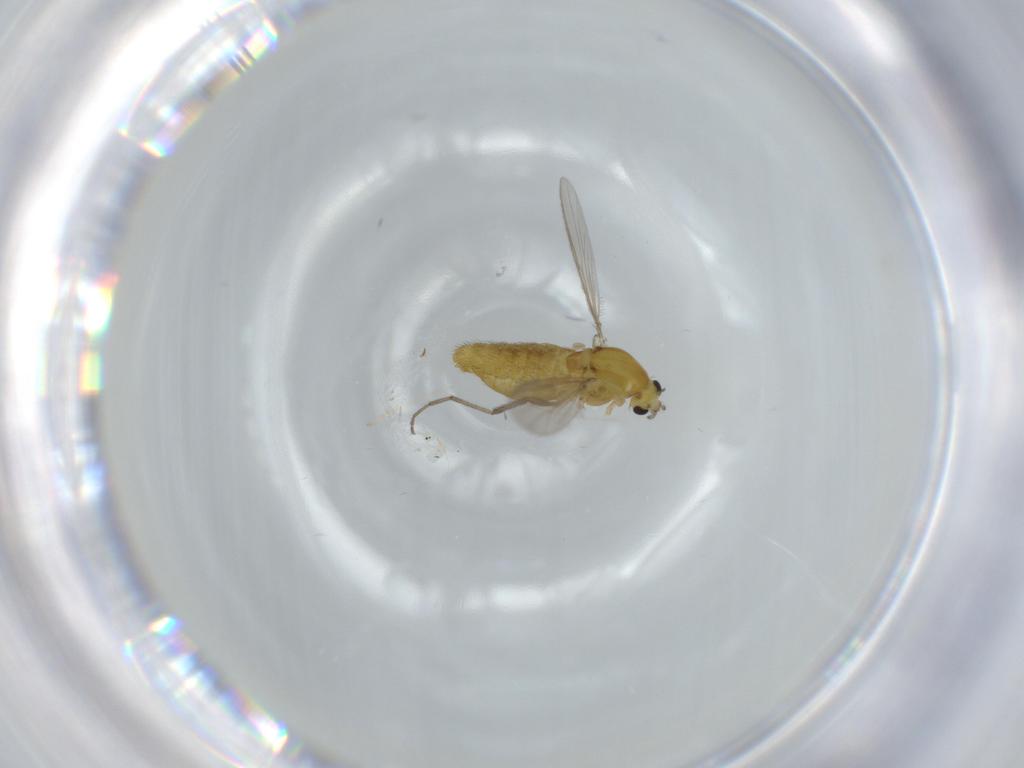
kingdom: Animalia
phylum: Arthropoda
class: Insecta
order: Diptera
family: Chironomidae
